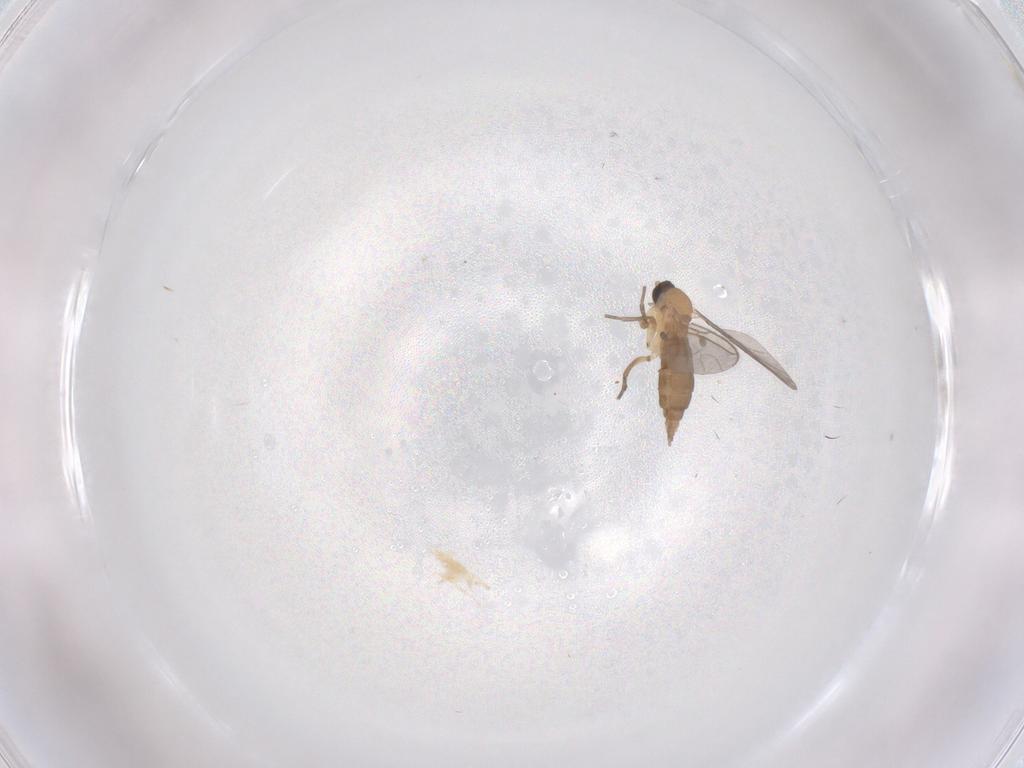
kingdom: Animalia
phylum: Arthropoda
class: Insecta
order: Diptera
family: Sciaridae
